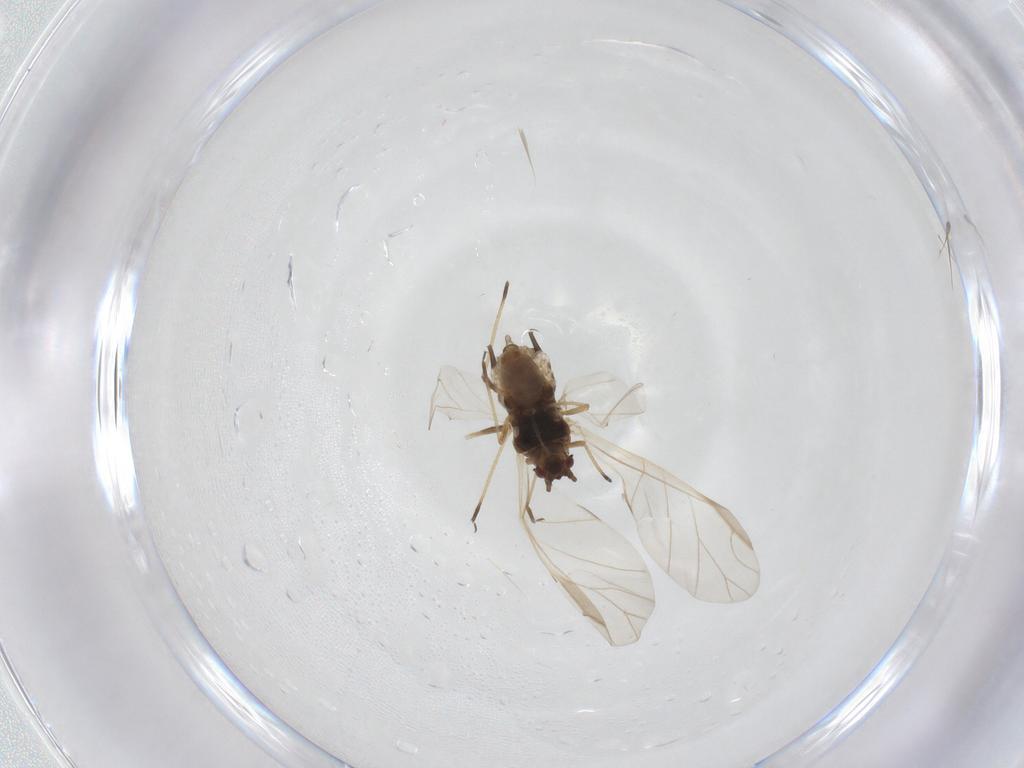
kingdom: Animalia
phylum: Arthropoda
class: Insecta
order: Hemiptera
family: Aphididae
